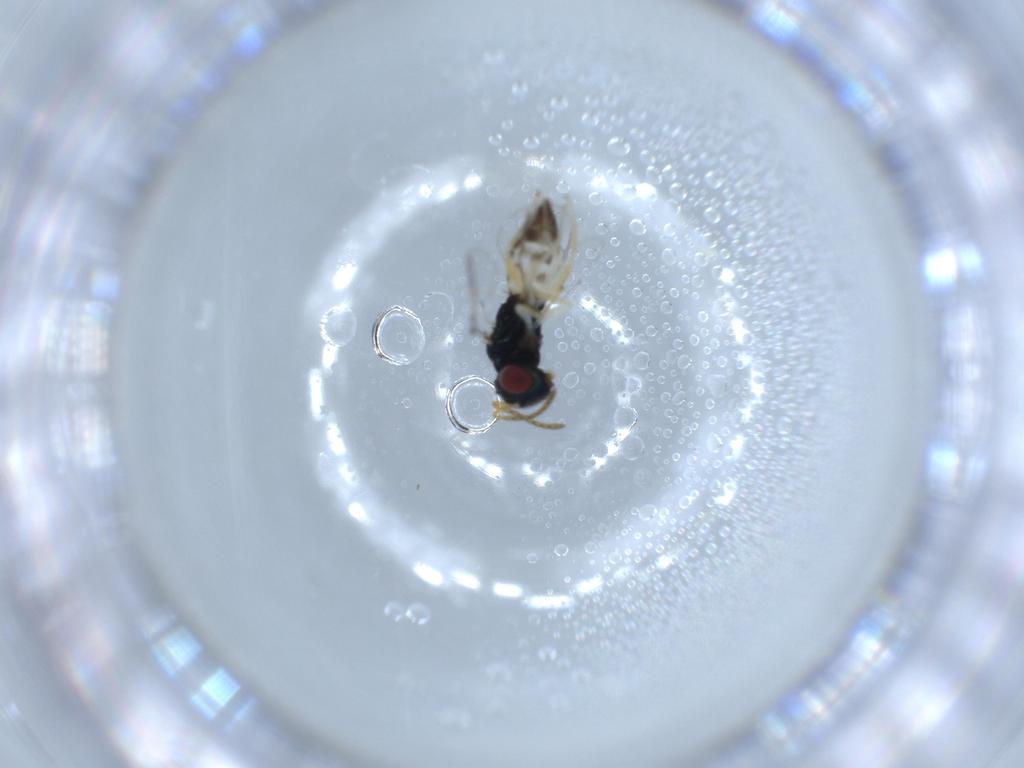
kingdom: Animalia
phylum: Arthropoda
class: Insecta
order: Hymenoptera
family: Pteromalidae
